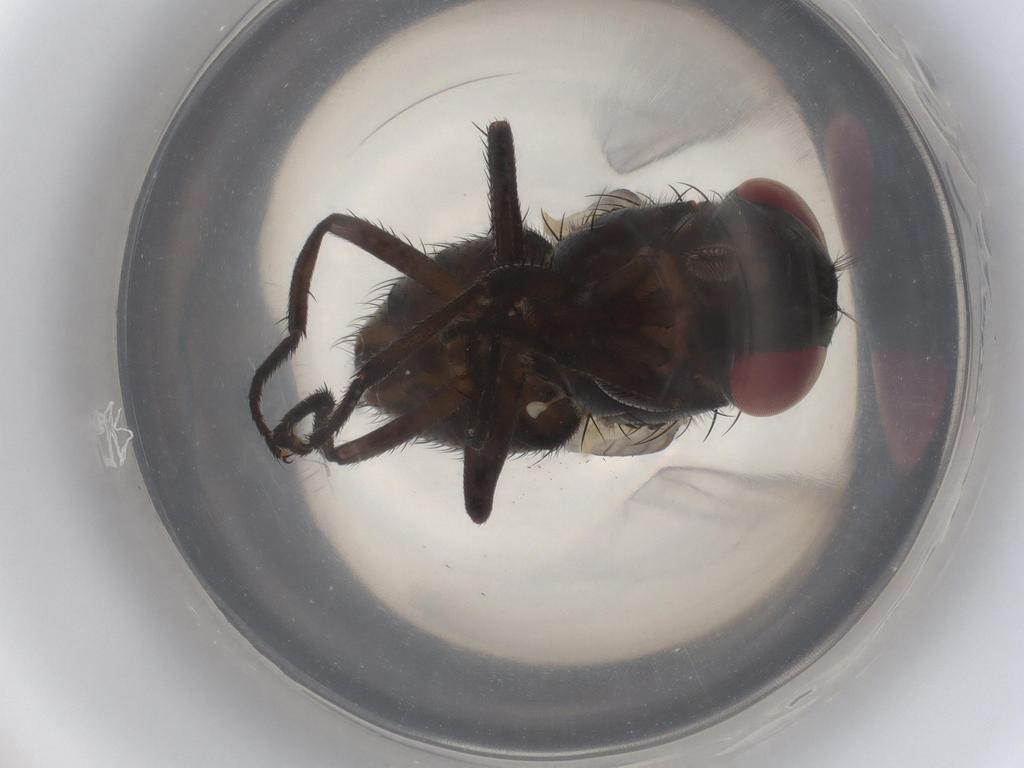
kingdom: Animalia
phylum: Arthropoda
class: Insecta
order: Diptera
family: Muscidae
